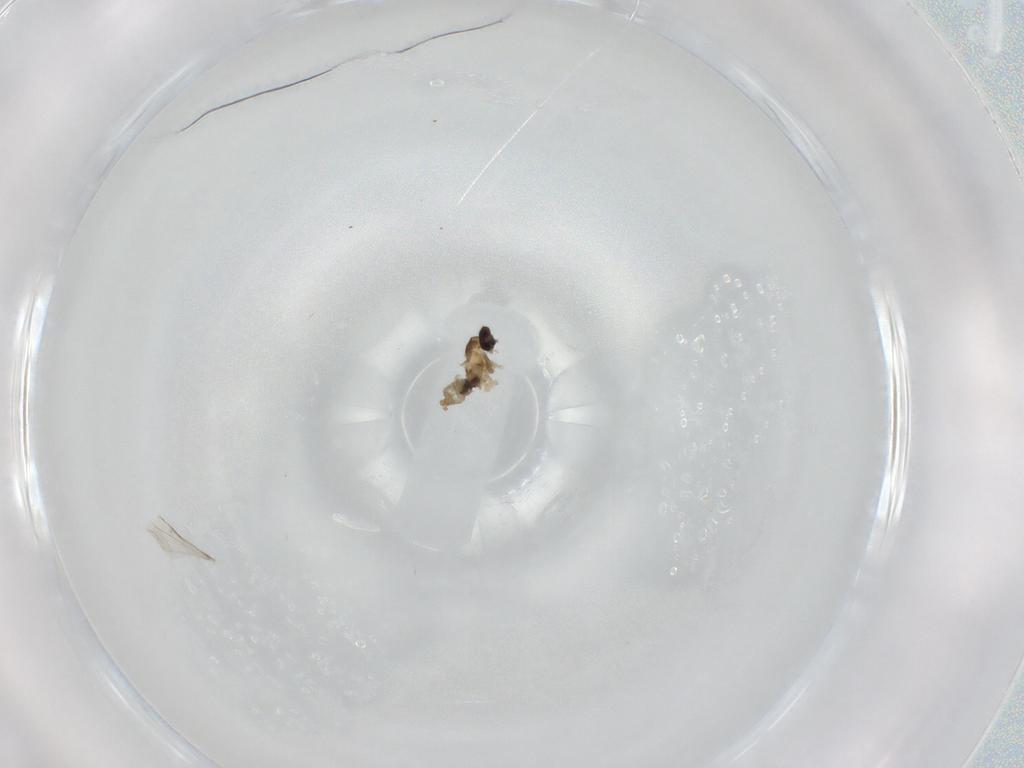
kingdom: Animalia
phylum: Arthropoda
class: Insecta
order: Diptera
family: Cecidomyiidae
